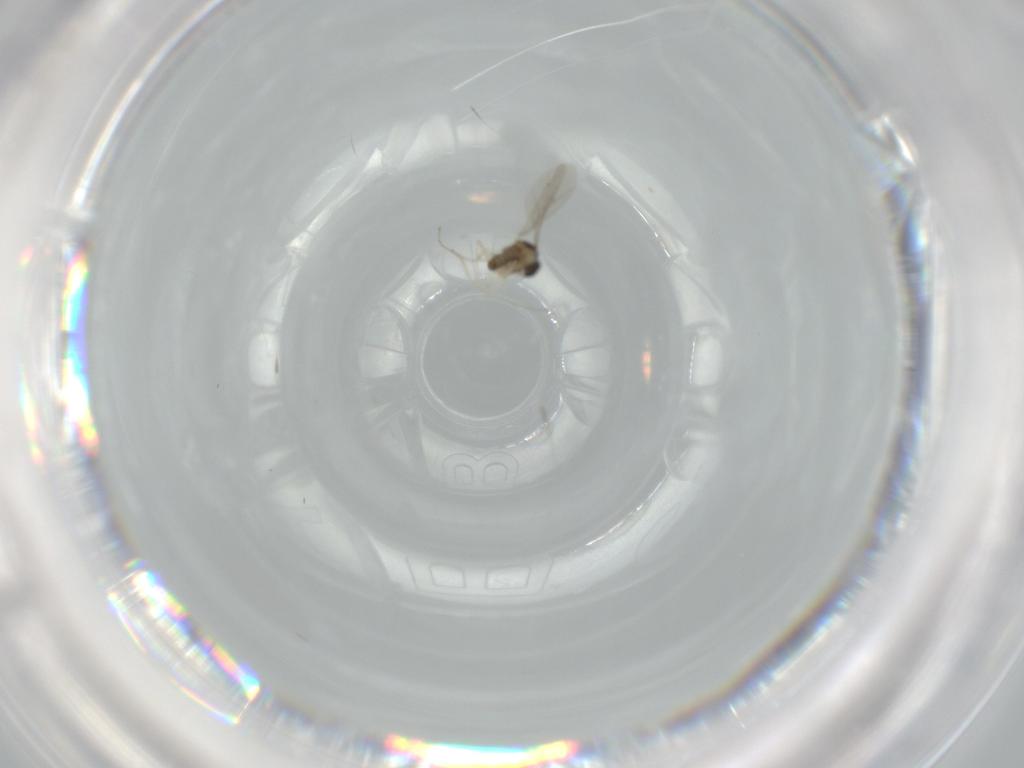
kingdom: Animalia
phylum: Arthropoda
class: Insecta
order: Diptera
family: Cecidomyiidae
